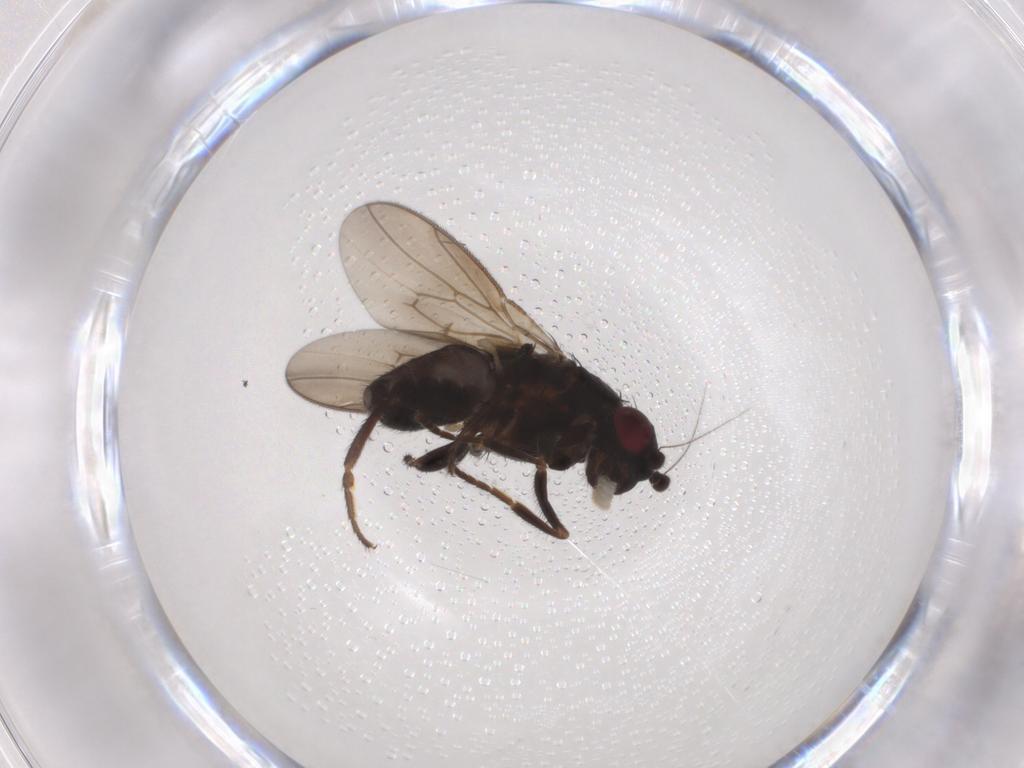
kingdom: Animalia
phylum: Arthropoda
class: Insecta
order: Diptera
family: Sphaeroceridae
